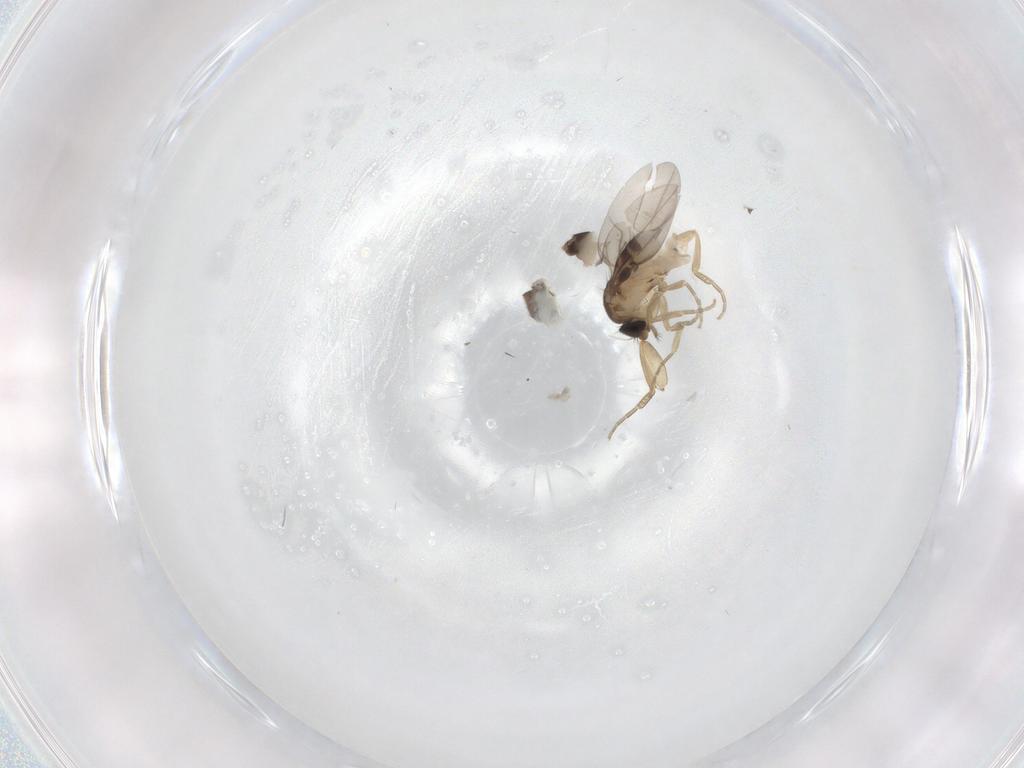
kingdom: Animalia
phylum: Arthropoda
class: Insecta
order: Diptera
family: Phoridae
